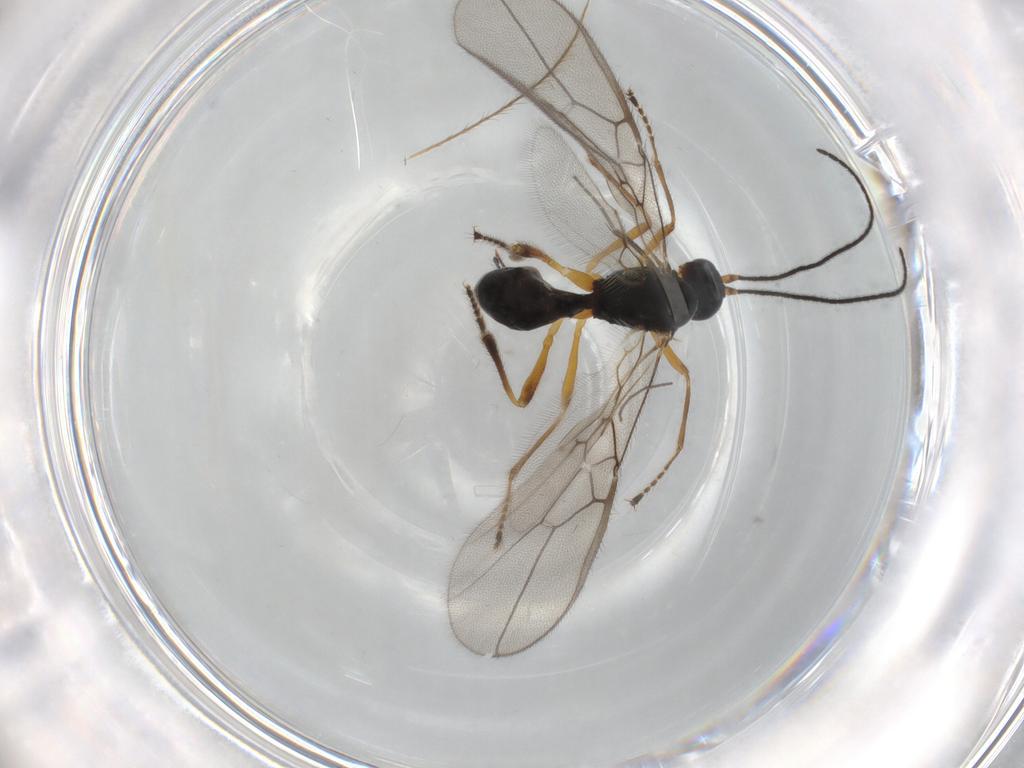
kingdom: Animalia
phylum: Arthropoda
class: Insecta
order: Hymenoptera
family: Braconidae
